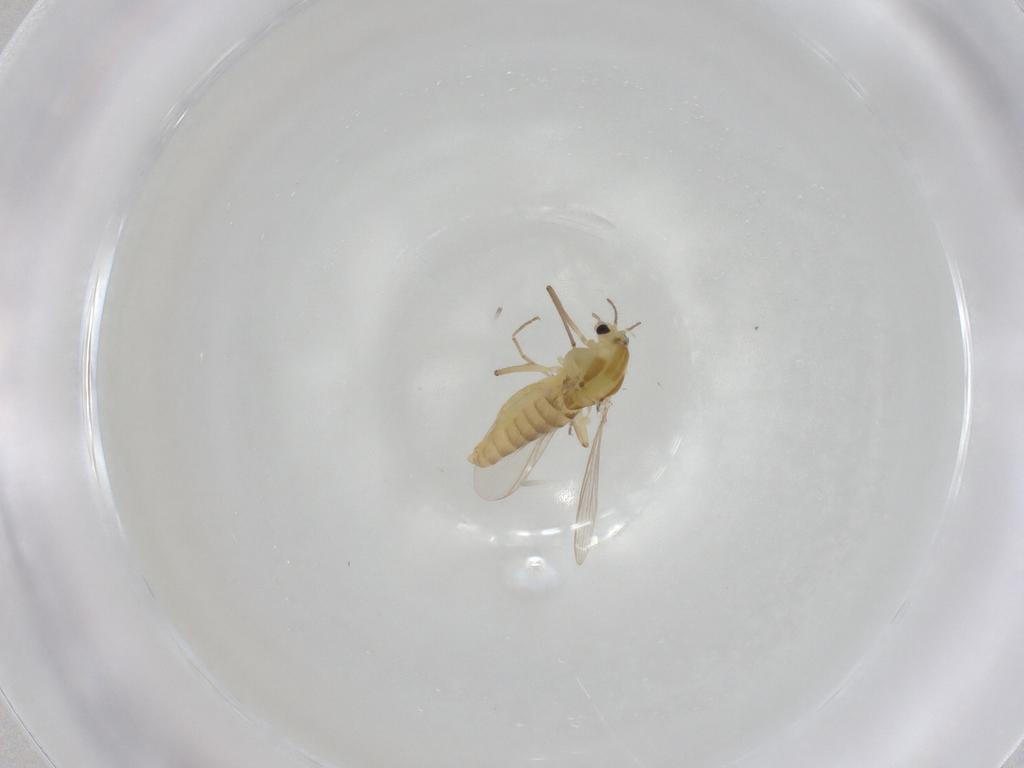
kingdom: Animalia
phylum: Arthropoda
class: Insecta
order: Diptera
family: Chironomidae
